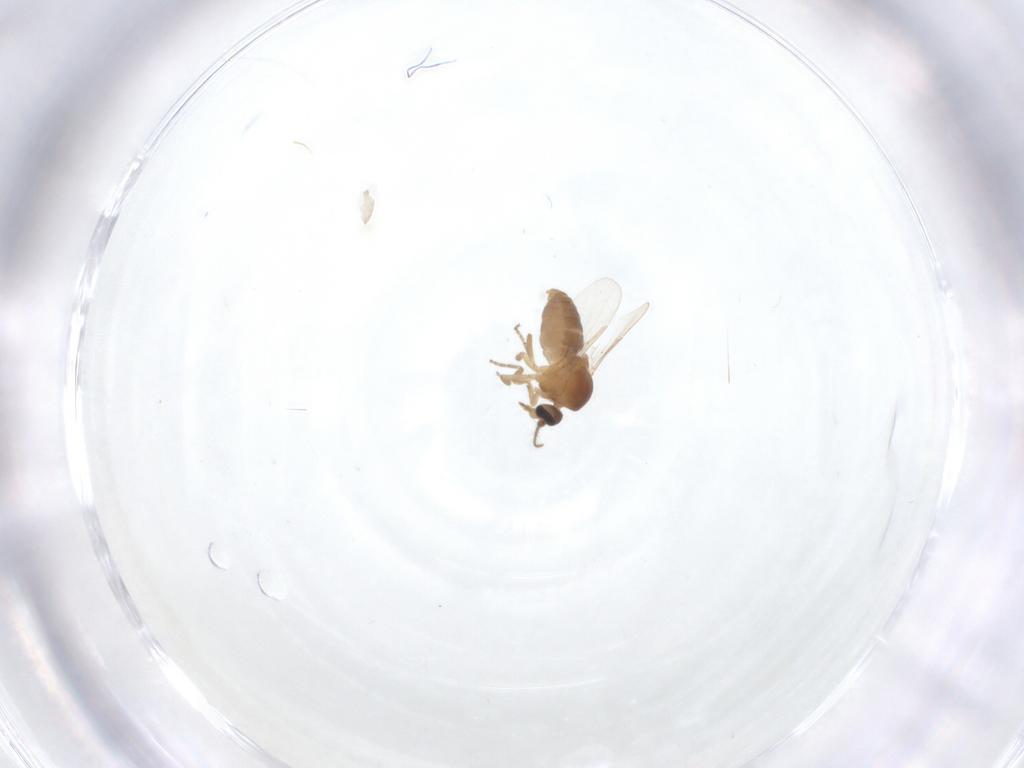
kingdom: Animalia
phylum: Arthropoda
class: Insecta
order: Diptera
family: Ceratopogonidae
